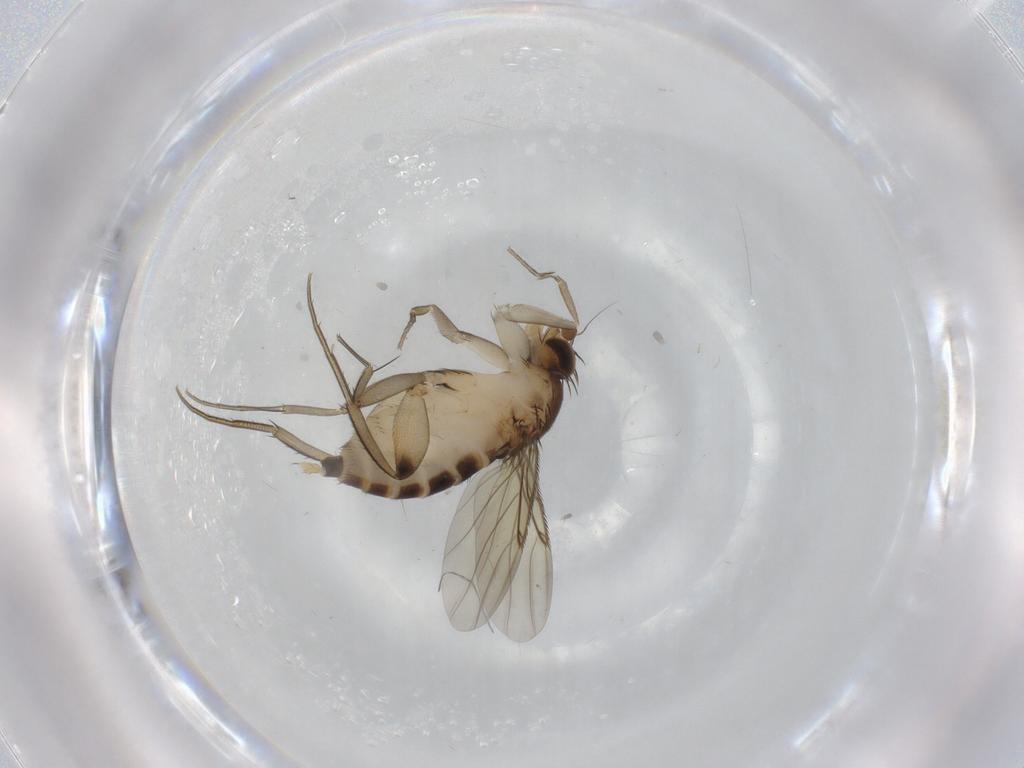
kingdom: Animalia
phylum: Arthropoda
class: Insecta
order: Diptera
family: Phoridae
